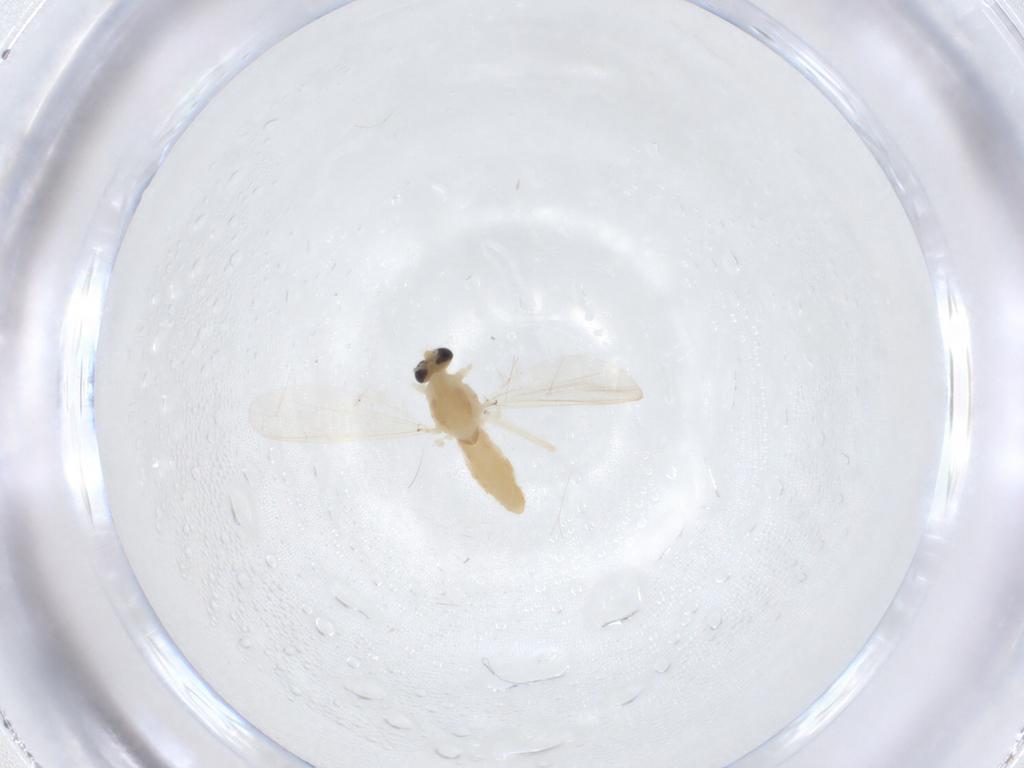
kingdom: Animalia
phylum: Arthropoda
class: Insecta
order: Diptera
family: Chironomidae
